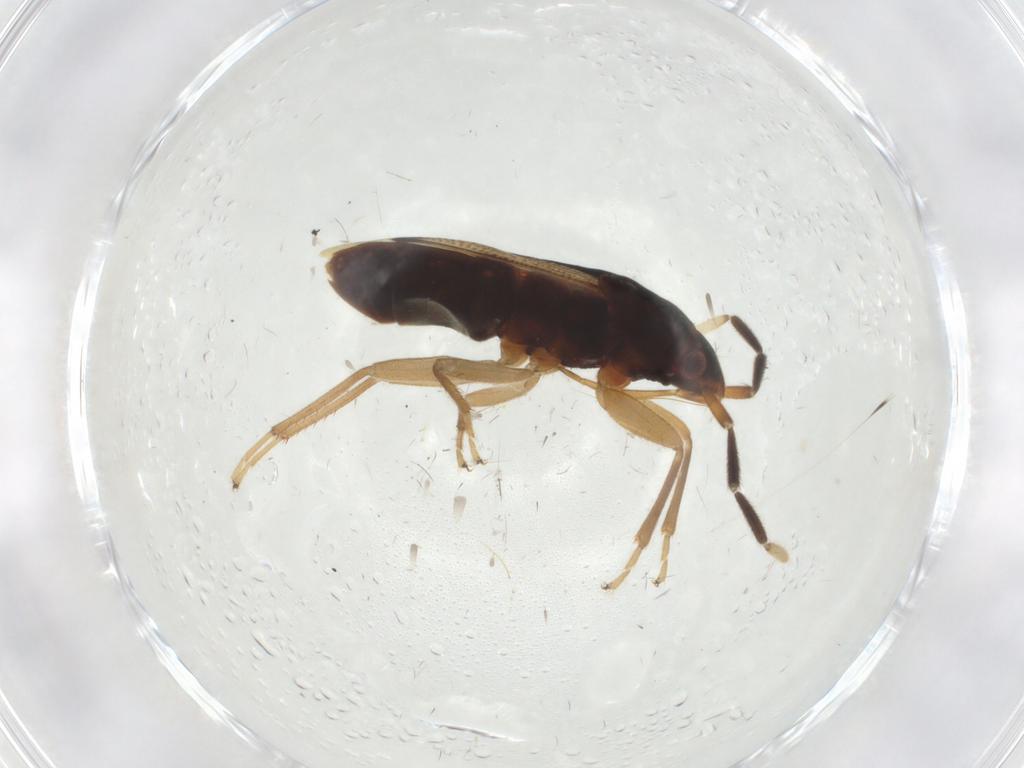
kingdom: Animalia
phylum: Arthropoda
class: Insecta
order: Hemiptera
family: Rhyparochromidae
